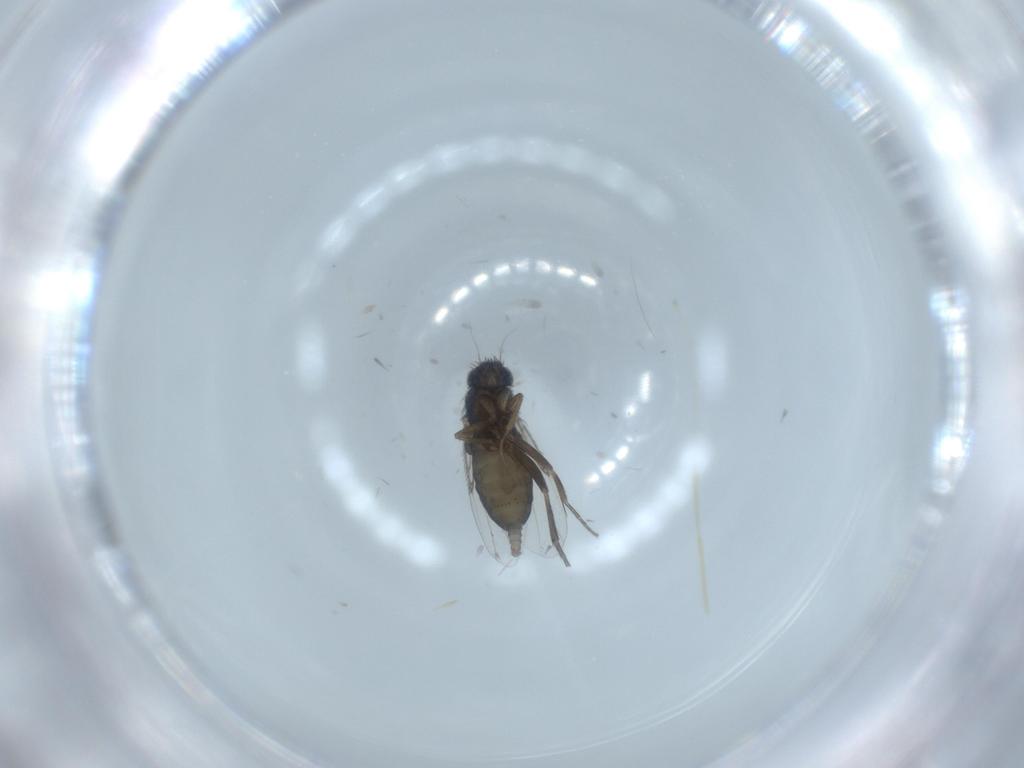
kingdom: Animalia
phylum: Arthropoda
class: Insecta
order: Diptera
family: Phoridae
